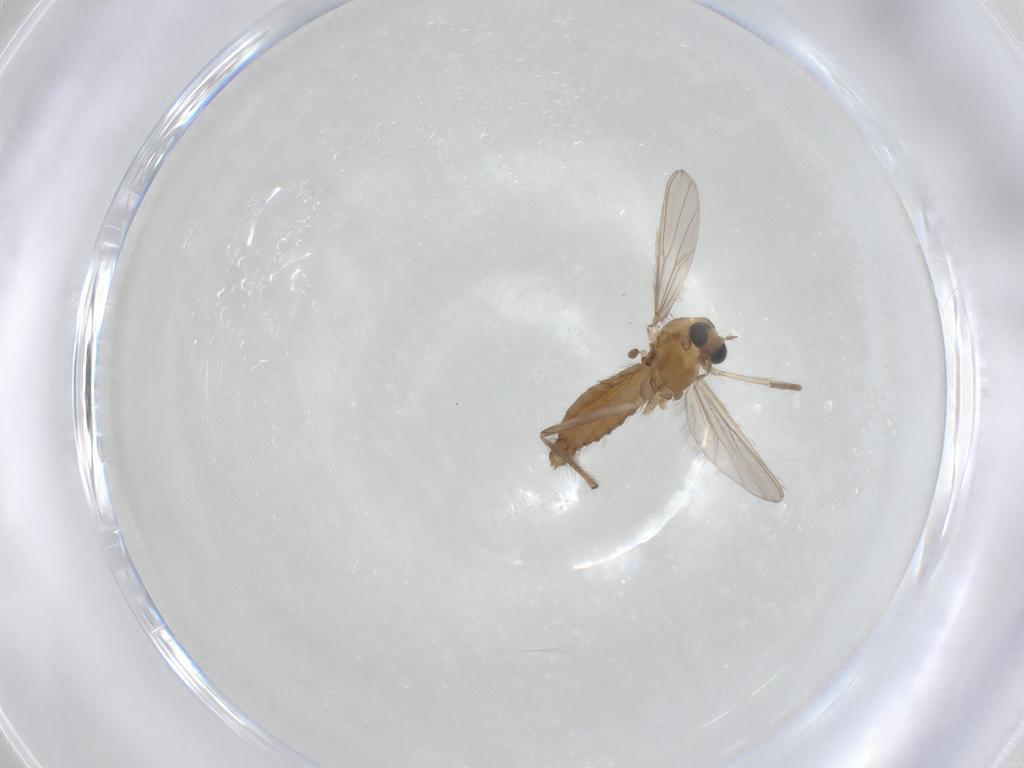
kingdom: Animalia
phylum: Arthropoda
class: Insecta
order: Diptera
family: Chironomidae
